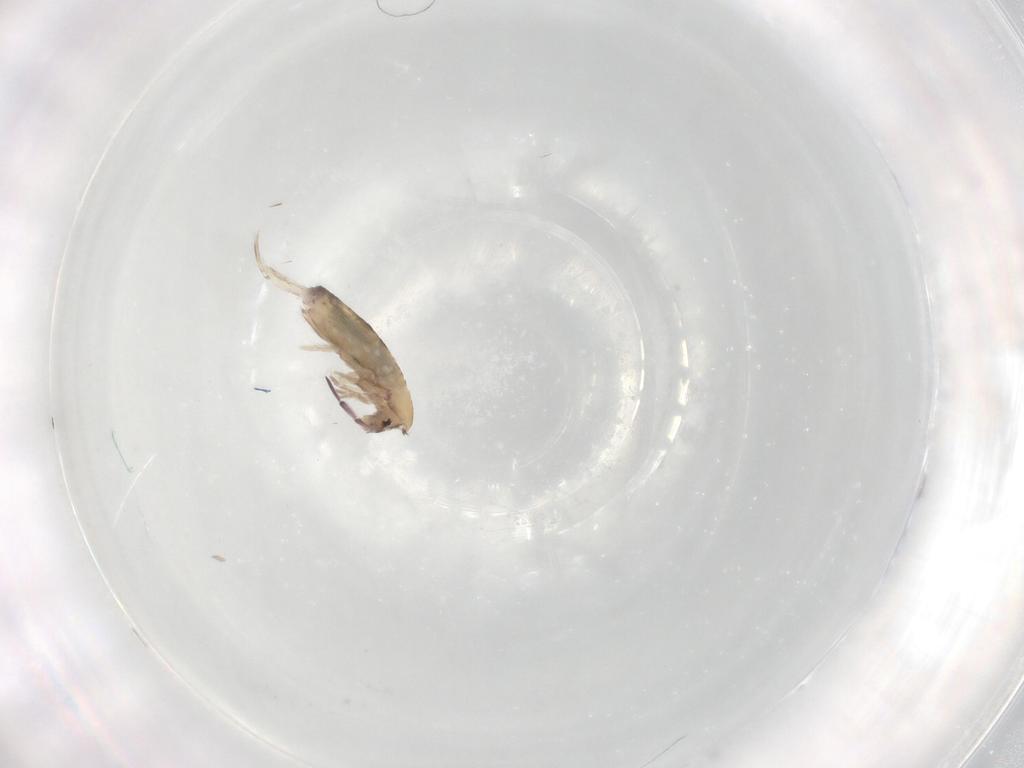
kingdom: Animalia
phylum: Arthropoda
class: Collembola
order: Entomobryomorpha
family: Entomobryidae
